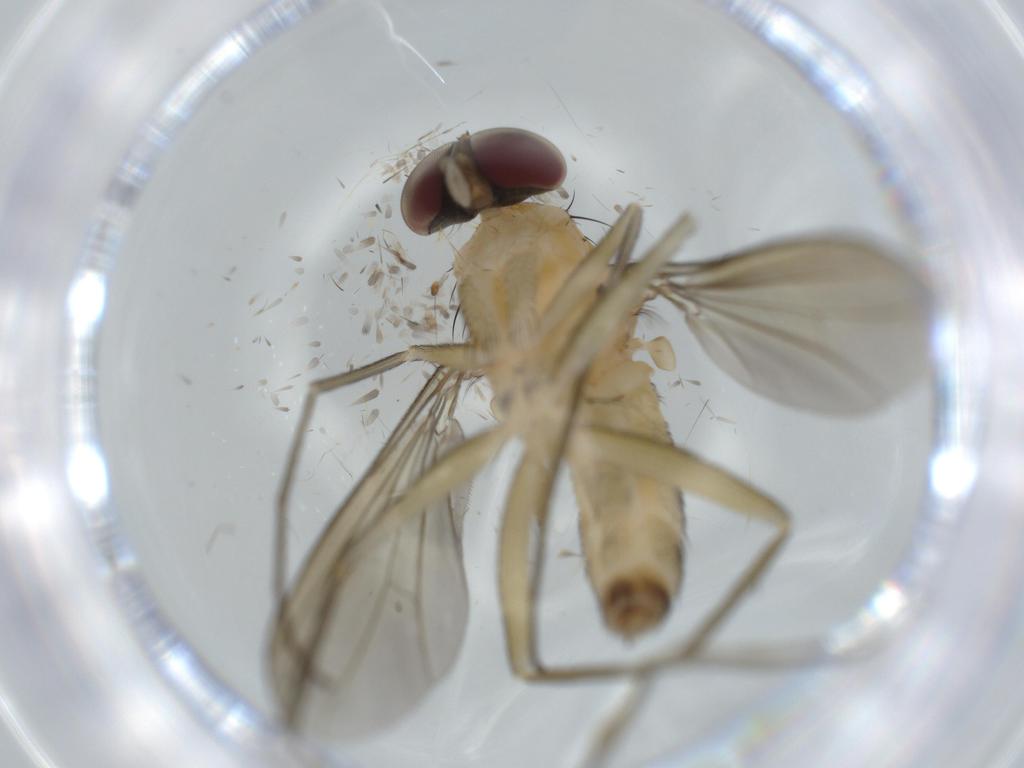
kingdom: Animalia
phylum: Arthropoda
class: Insecta
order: Diptera
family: Dolichopodidae
